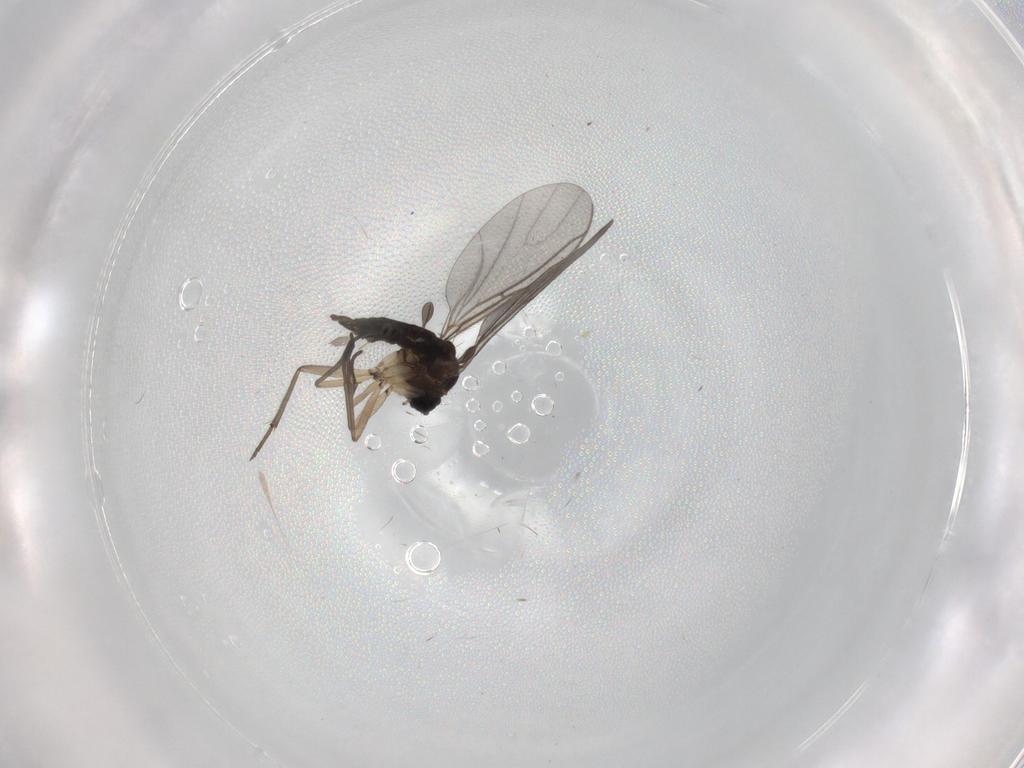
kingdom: Animalia
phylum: Arthropoda
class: Insecta
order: Diptera
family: Sciaridae
